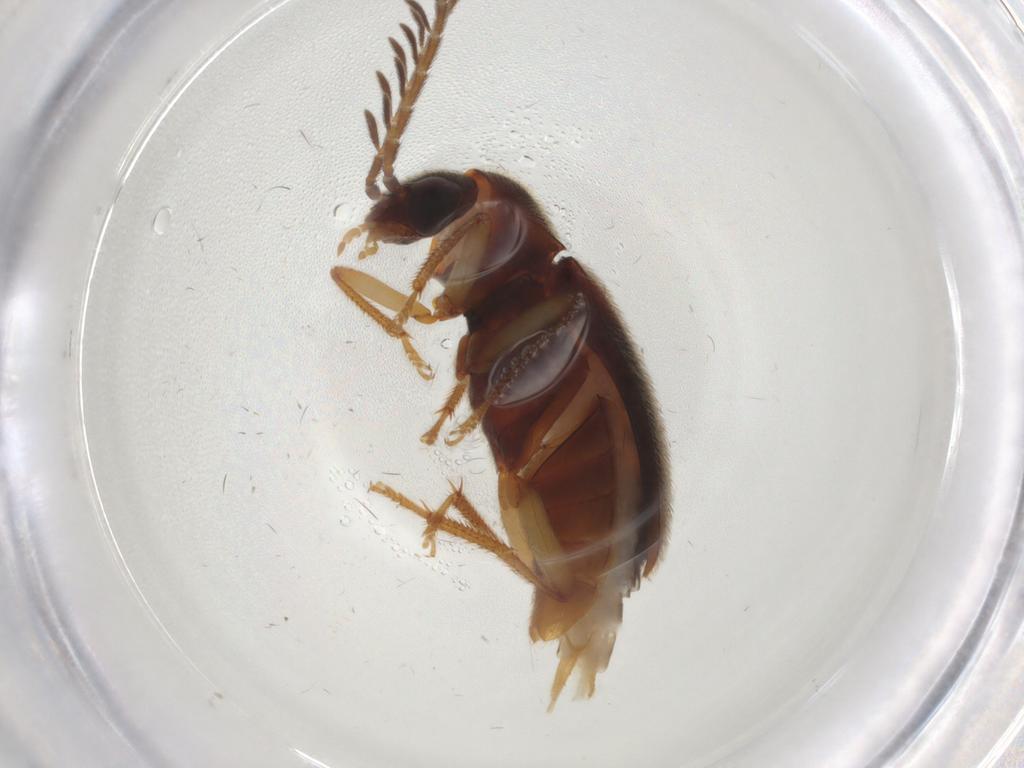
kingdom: Animalia
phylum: Arthropoda
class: Insecta
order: Coleoptera
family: Ptilodactylidae
